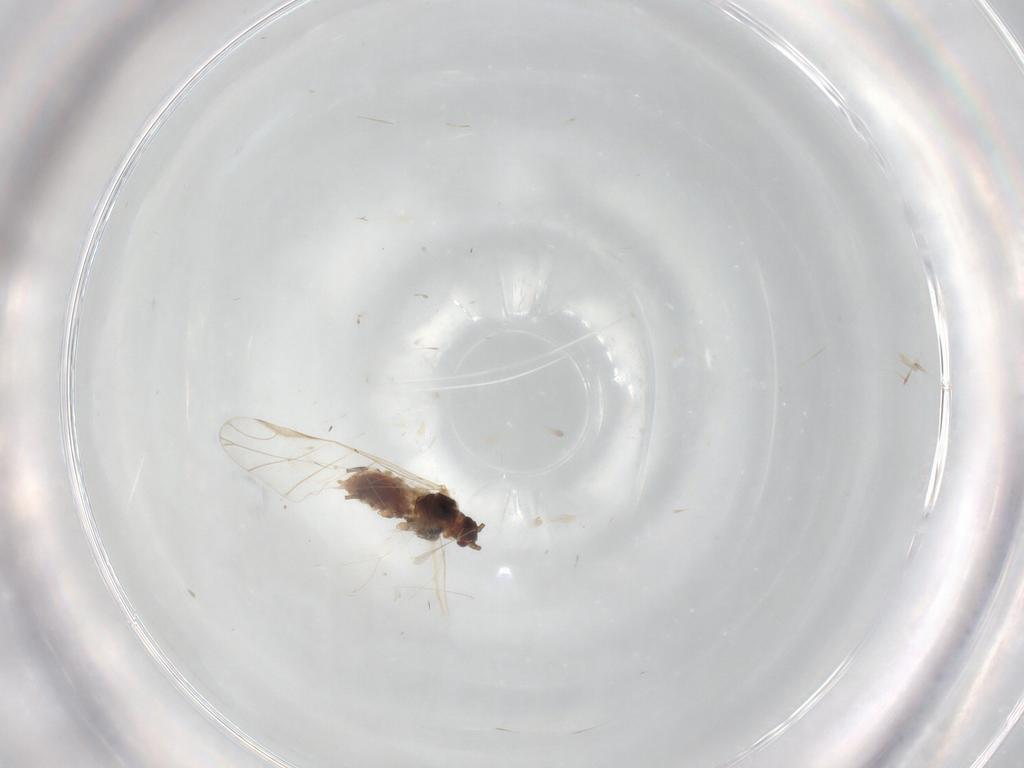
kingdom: Animalia
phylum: Arthropoda
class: Insecta
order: Hemiptera
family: Aphididae
